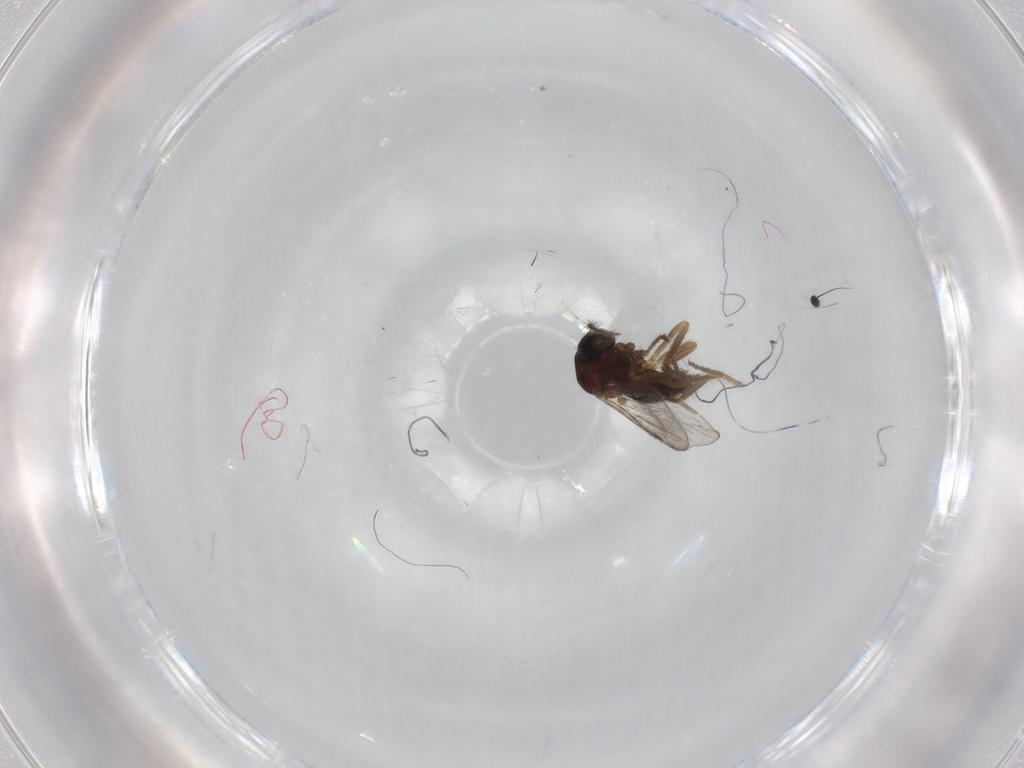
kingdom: Animalia
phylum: Arthropoda
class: Insecta
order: Diptera
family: Ceratopogonidae
